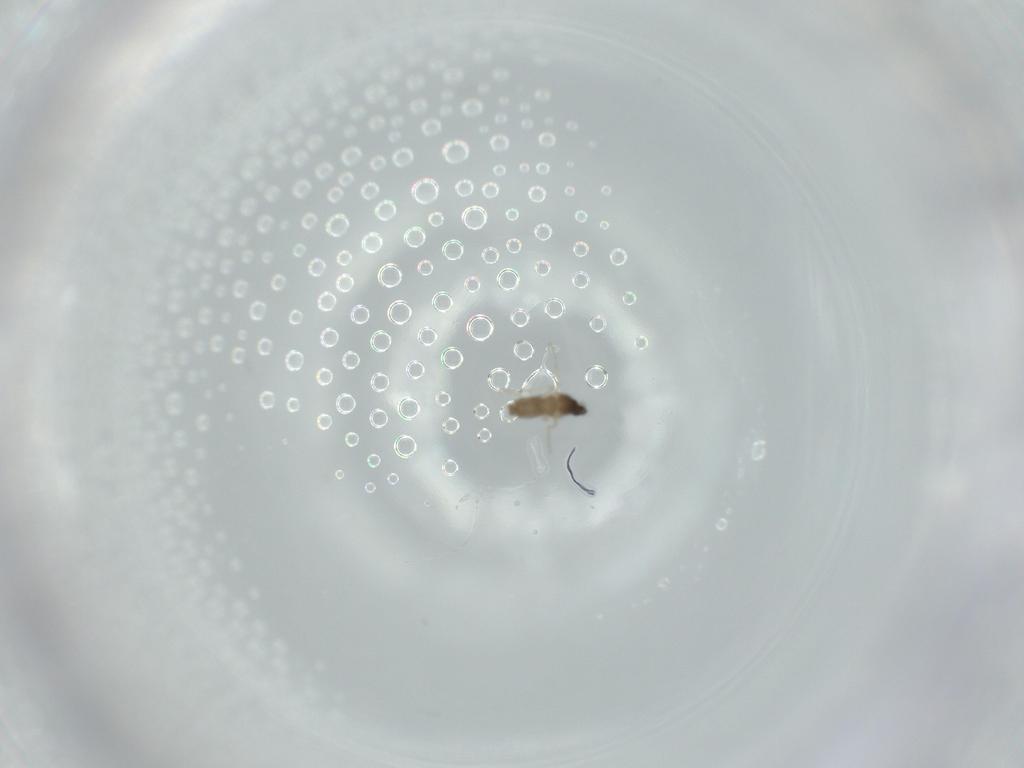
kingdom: Animalia
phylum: Arthropoda
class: Insecta
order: Diptera
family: Cecidomyiidae
